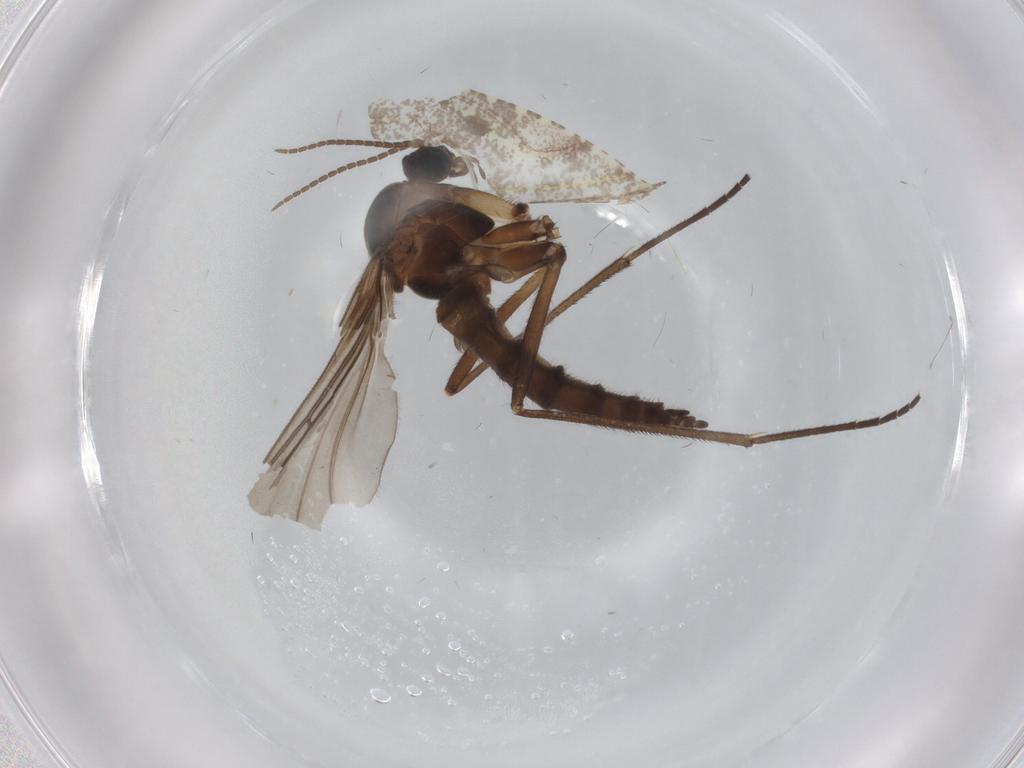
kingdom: Animalia
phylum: Arthropoda
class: Insecta
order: Diptera
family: Sciaridae
